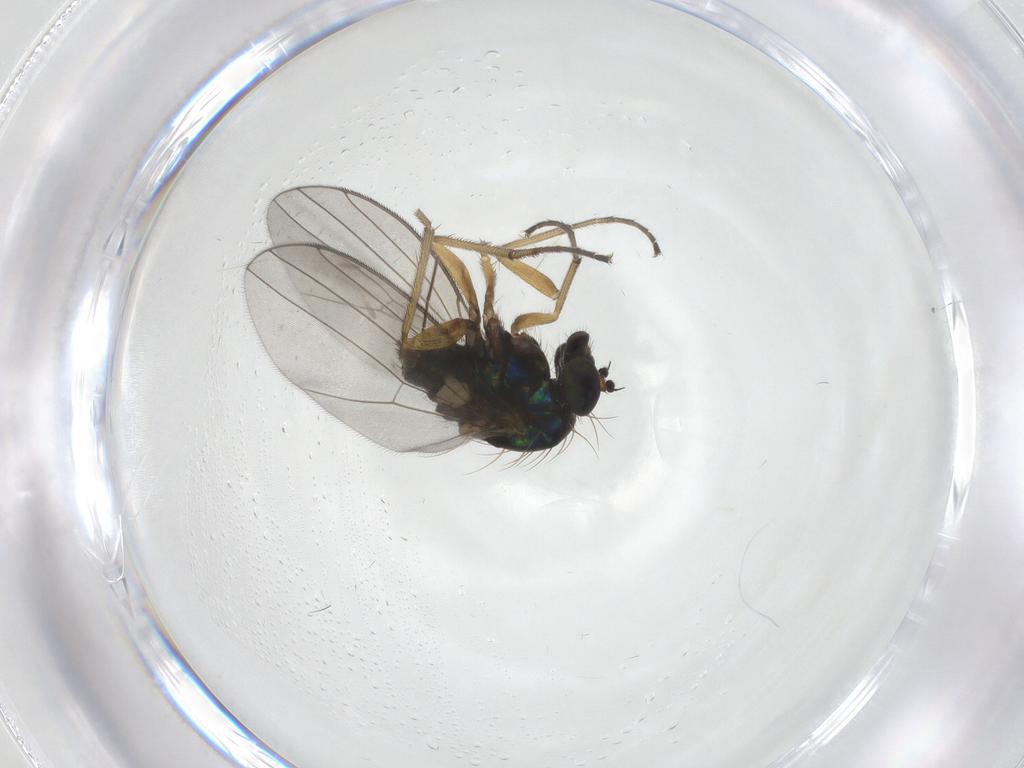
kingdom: Animalia
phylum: Arthropoda
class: Insecta
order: Diptera
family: Dolichopodidae
